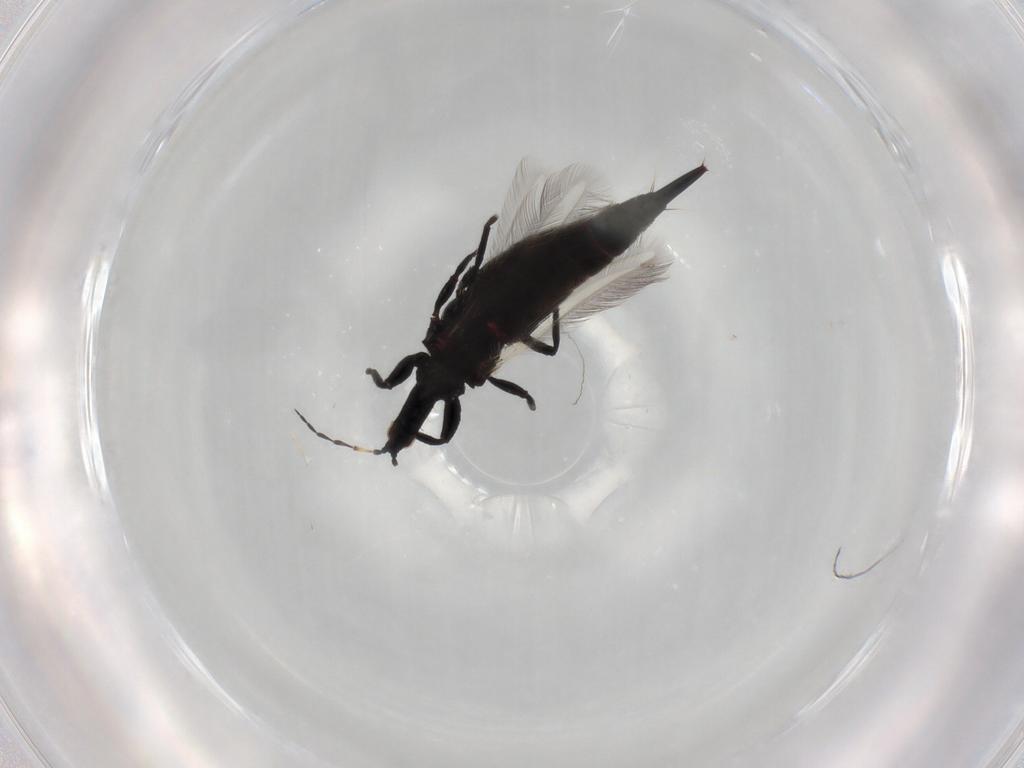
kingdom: Animalia
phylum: Arthropoda
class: Insecta
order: Thysanoptera
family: Phlaeothripidae
